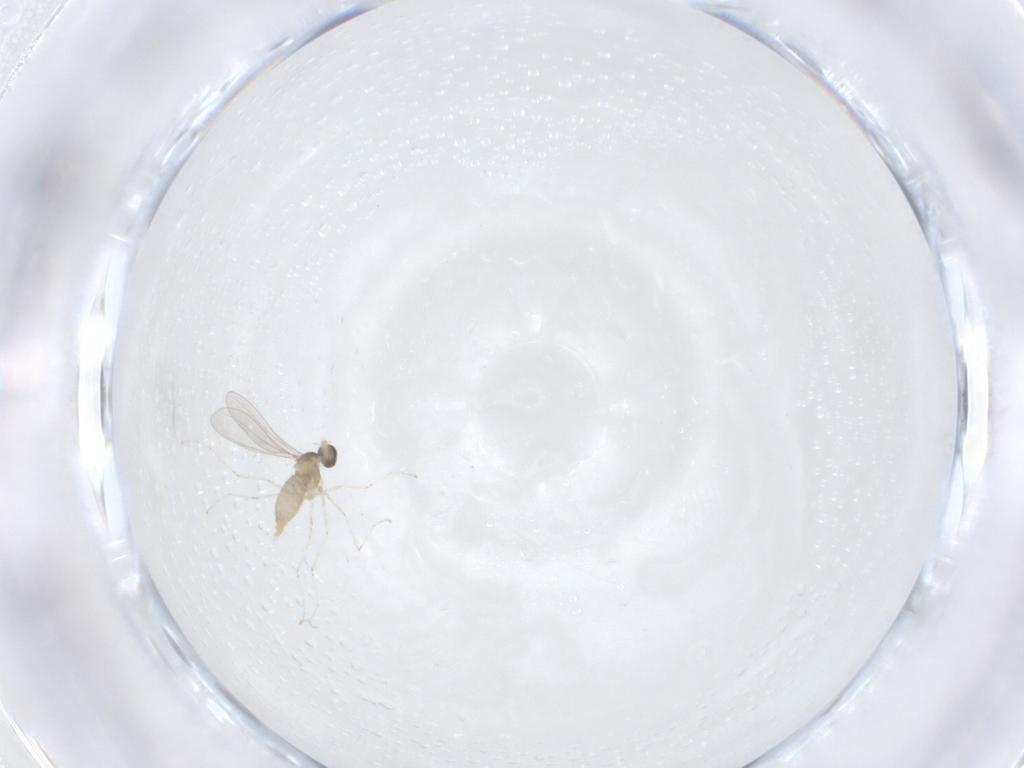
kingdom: Animalia
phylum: Arthropoda
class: Insecta
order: Diptera
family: Cecidomyiidae
